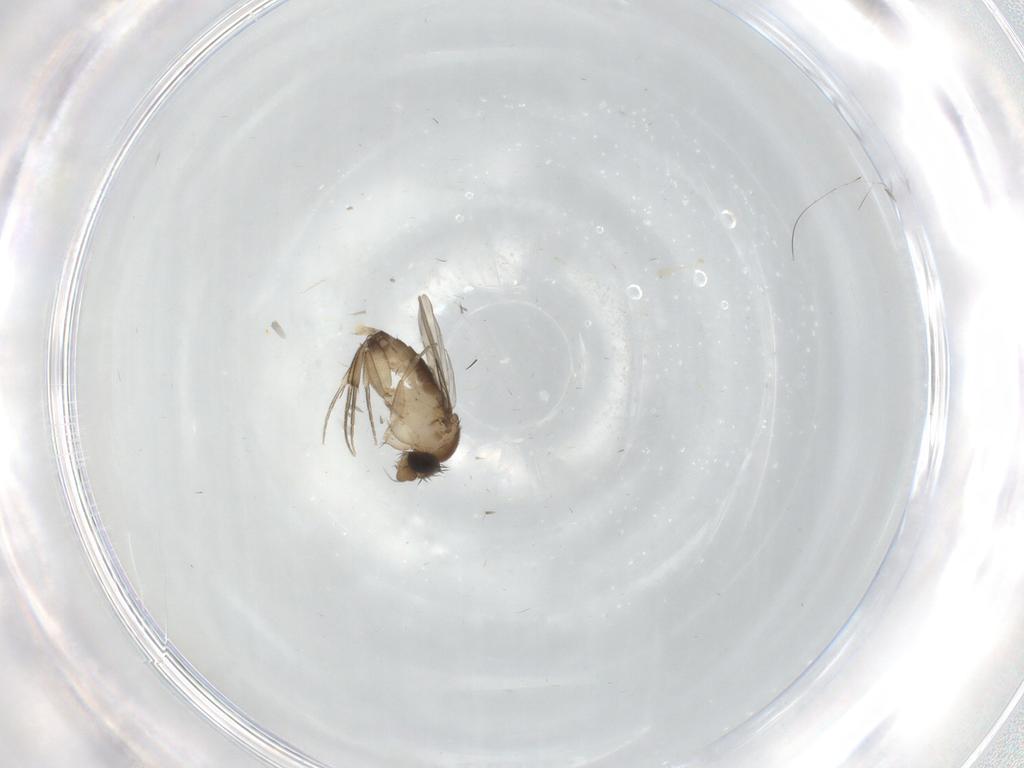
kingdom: Animalia
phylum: Arthropoda
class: Insecta
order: Diptera
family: Phoridae
